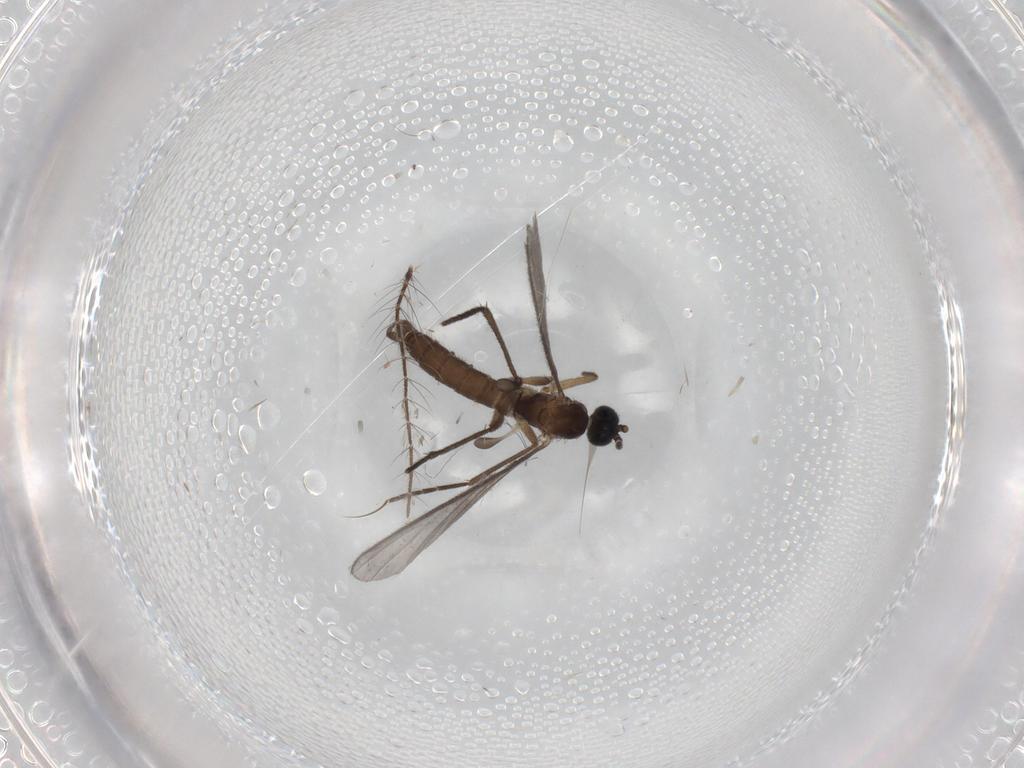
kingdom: Animalia
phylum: Arthropoda
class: Insecta
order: Diptera
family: Sciaridae
